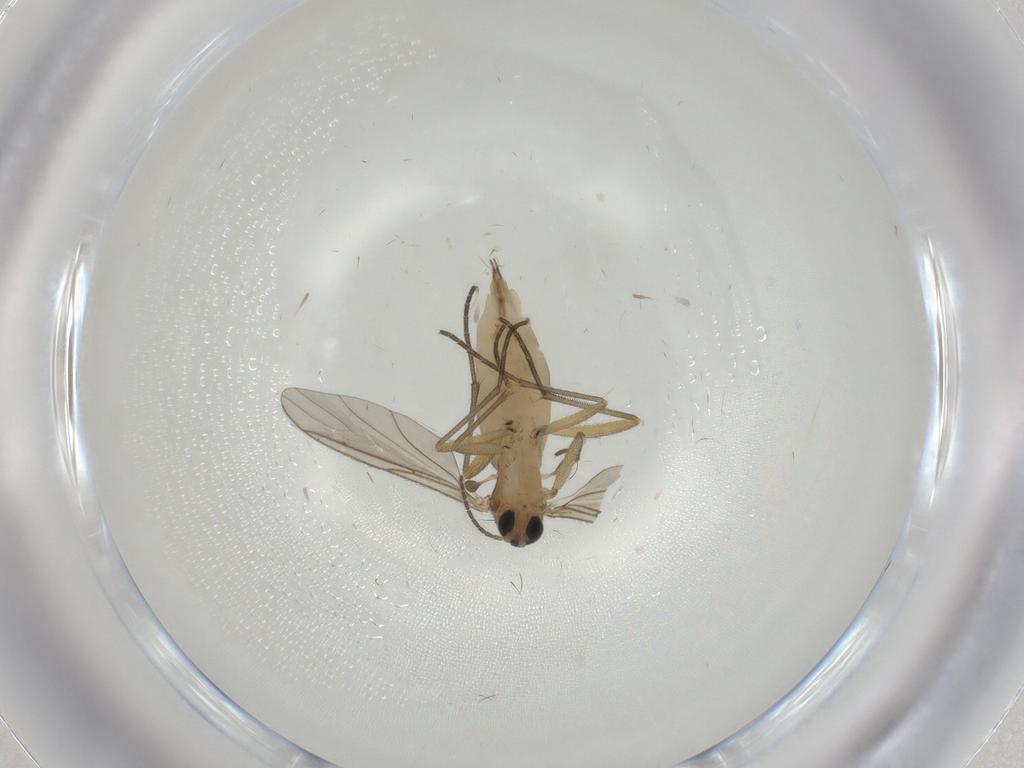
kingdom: Animalia
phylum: Arthropoda
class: Insecta
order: Diptera
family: Sciaridae
